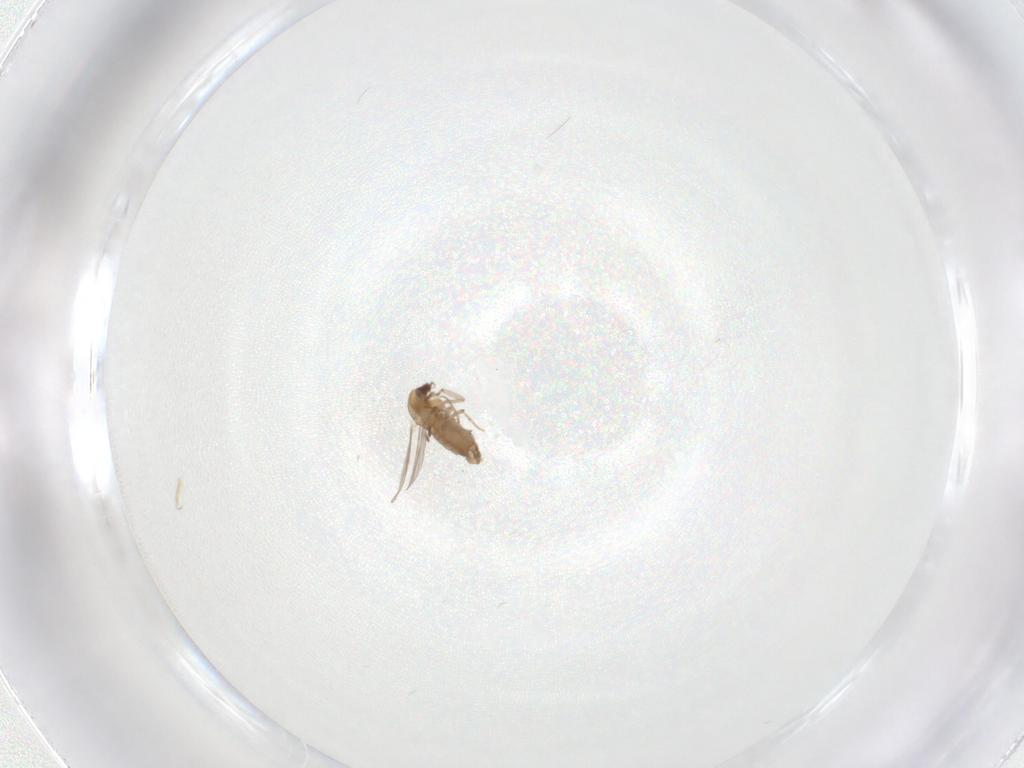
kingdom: Animalia
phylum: Arthropoda
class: Insecta
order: Diptera
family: Chironomidae
